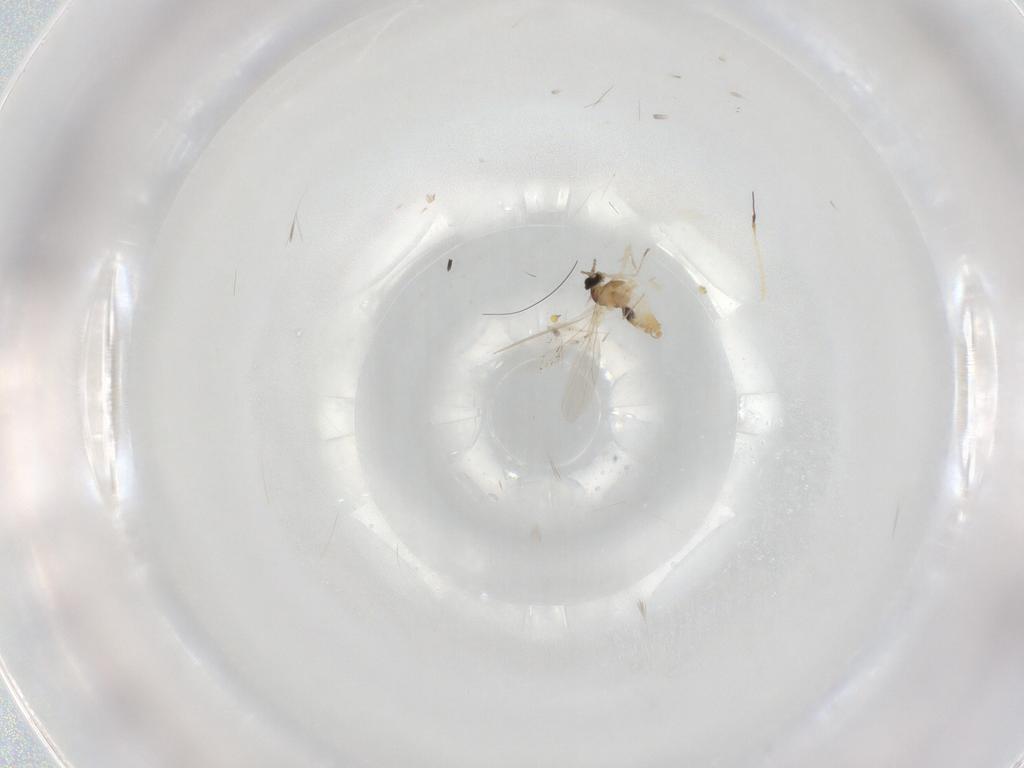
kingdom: Animalia
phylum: Arthropoda
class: Insecta
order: Diptera
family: Cecidomyiidae
